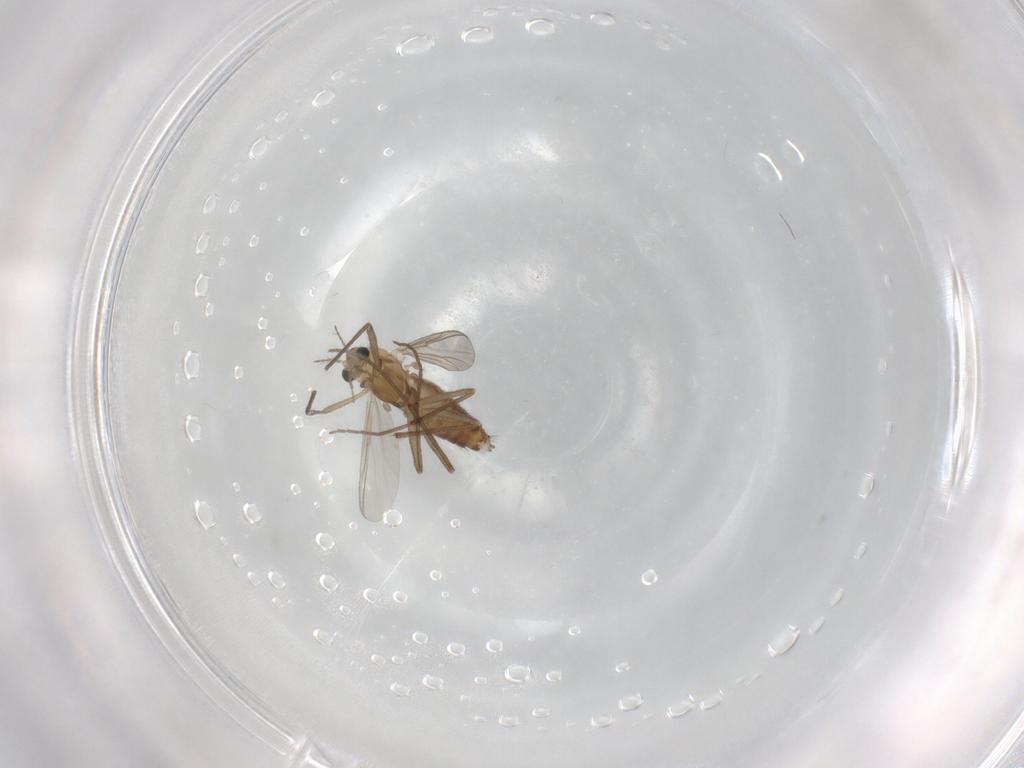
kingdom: Animalia
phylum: Arthropoda
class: Insecta
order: Diptera
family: Chironomidae
